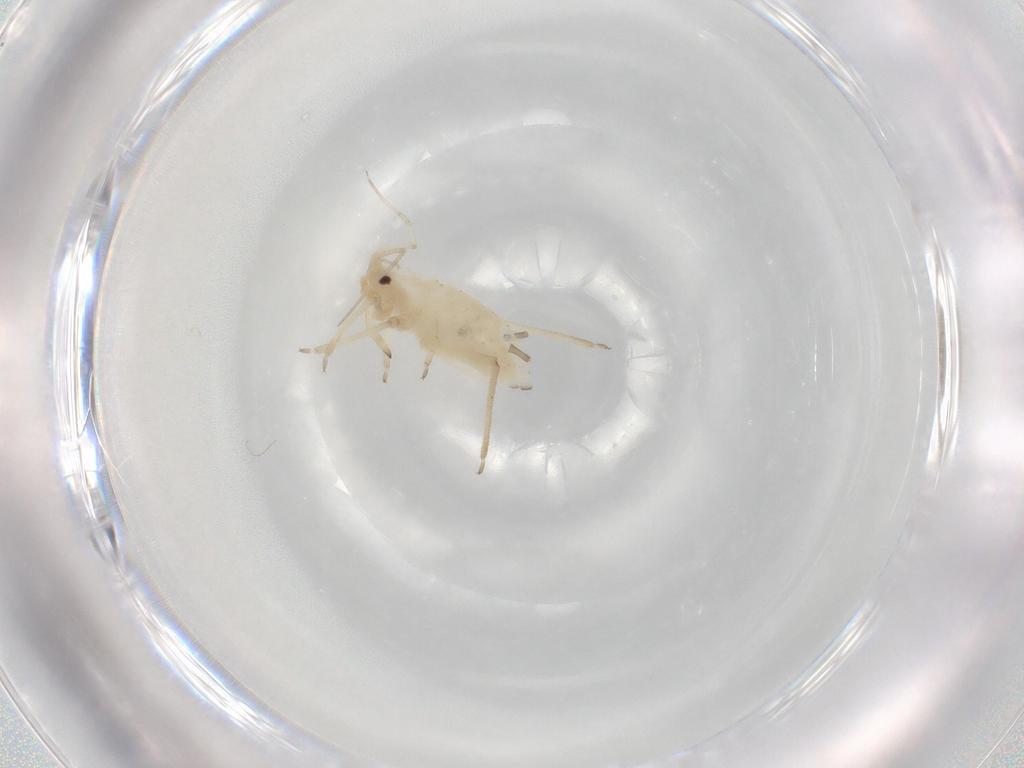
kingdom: Animalia
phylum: Arthropoda
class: Insecta
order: Hemiptera
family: Aphididae
